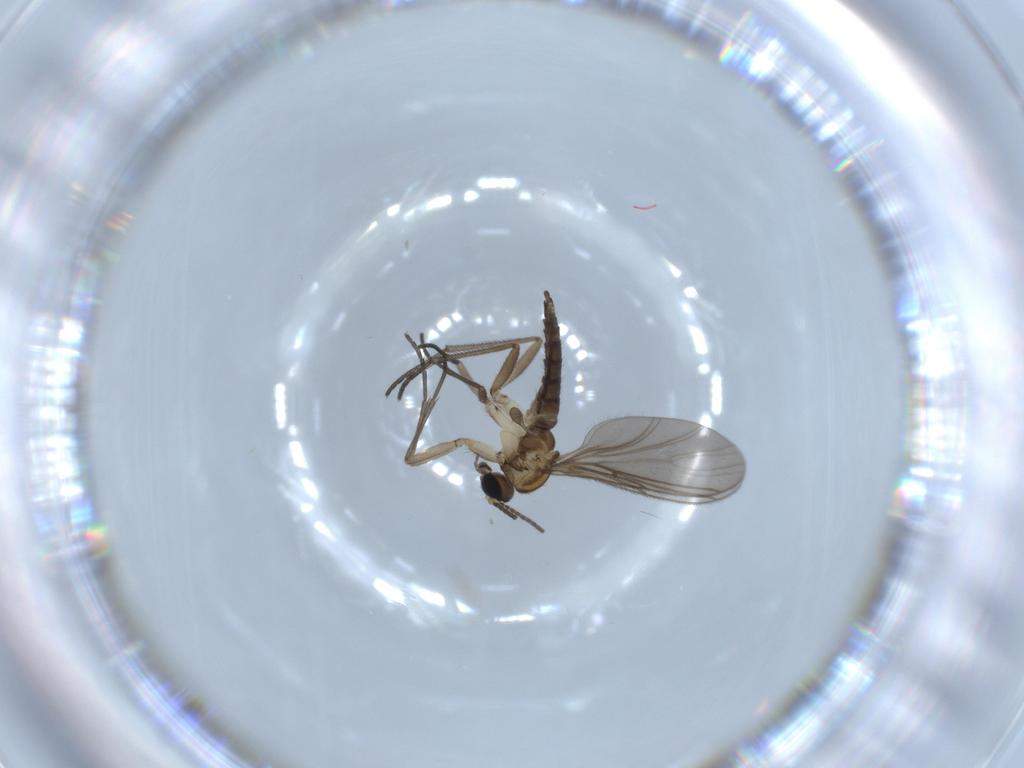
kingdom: Animalia
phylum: Arthropoda
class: Insecta
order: Diptera
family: Sciaridae
